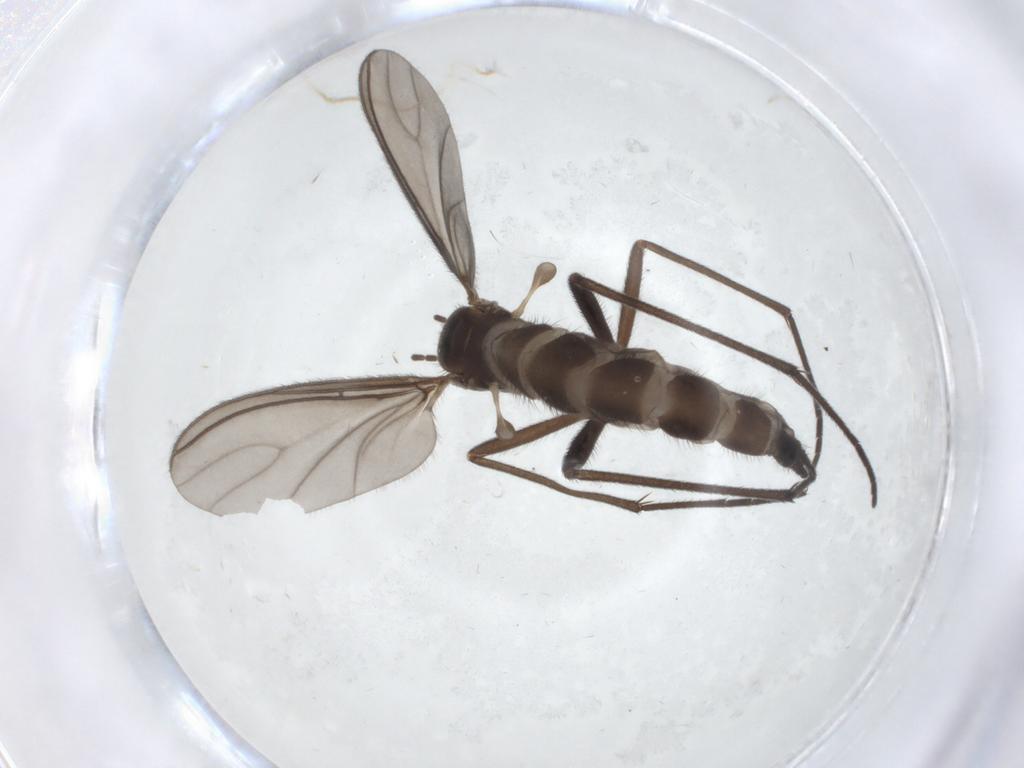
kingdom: Animalia
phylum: Arthropoda
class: Insecta
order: Diptera
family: Sciaridae
